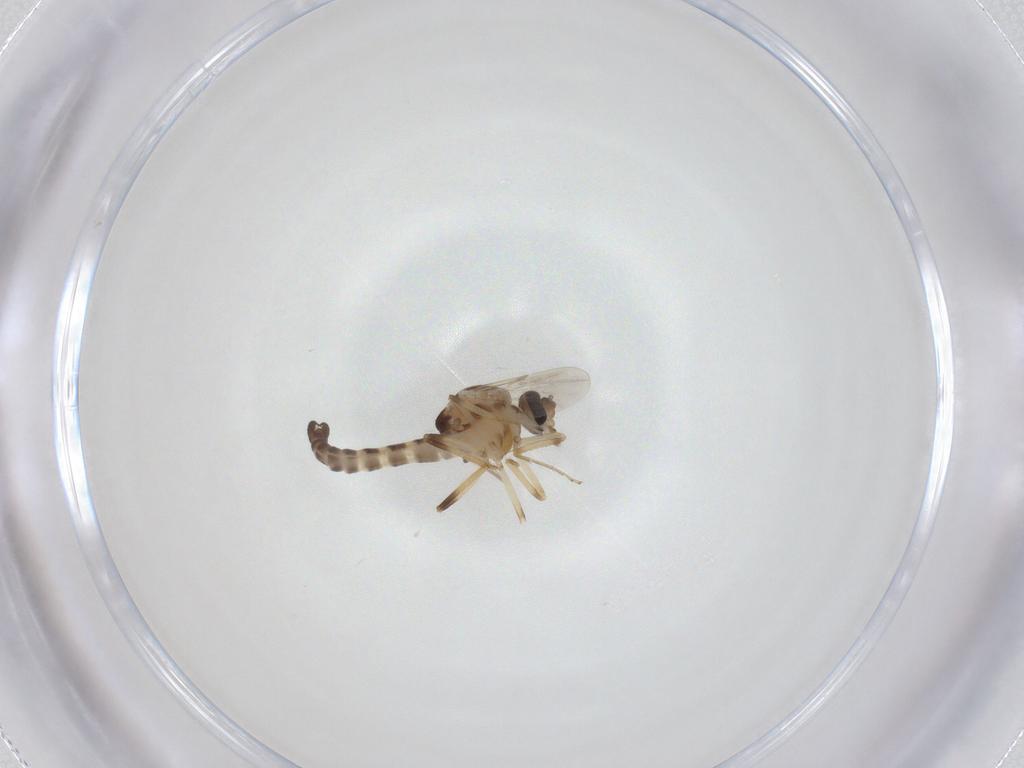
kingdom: Animalia
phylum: Arthropoda
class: Insecta
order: Diptera
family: Ceratopogonidae
